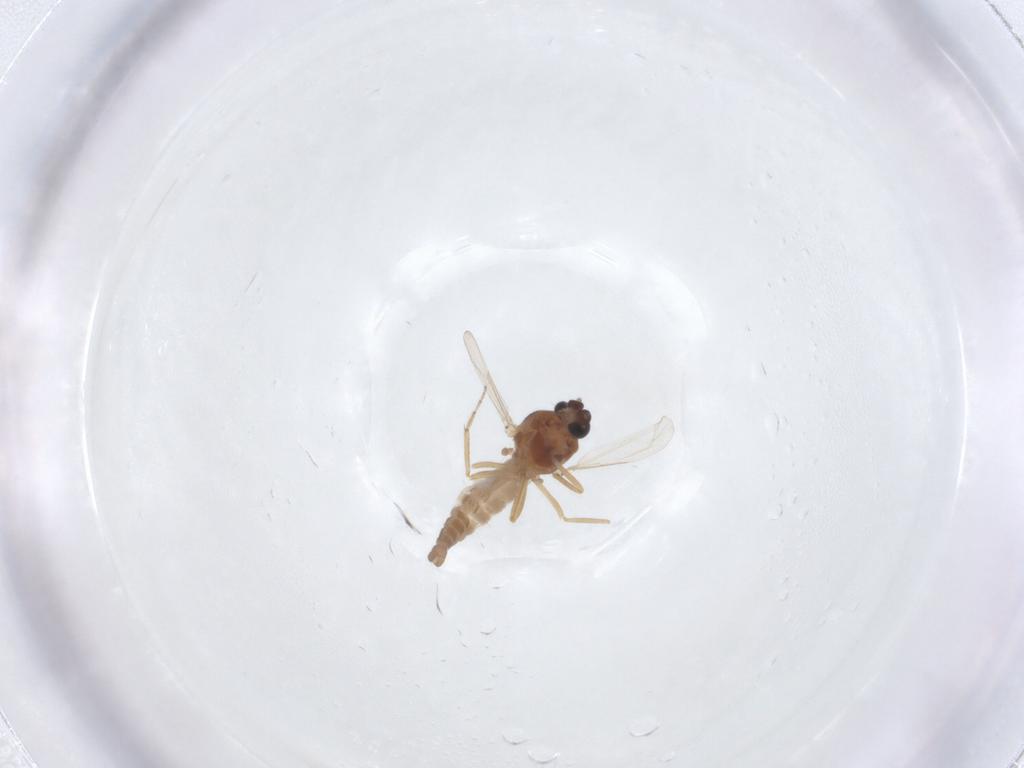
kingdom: Animalia
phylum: Arthropoda
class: Insecta
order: Diptera
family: Ceratopogonidae
